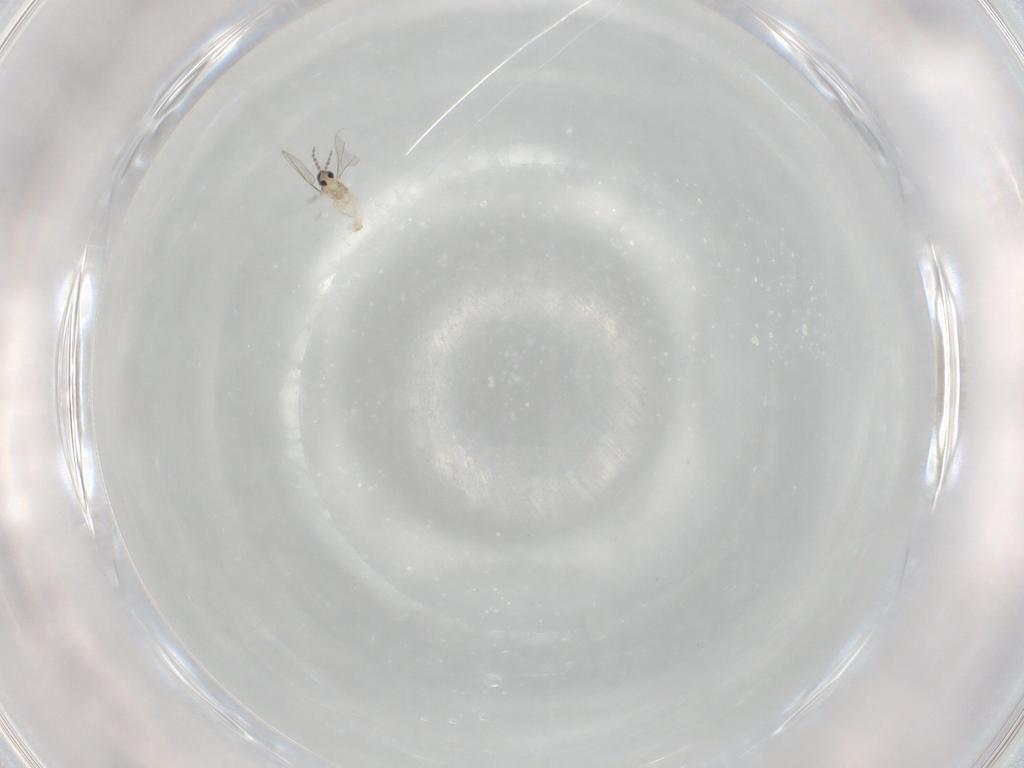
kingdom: Animalia
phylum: Arthropoda
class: Insecta
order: Diptera
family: Cecidomyiidae
